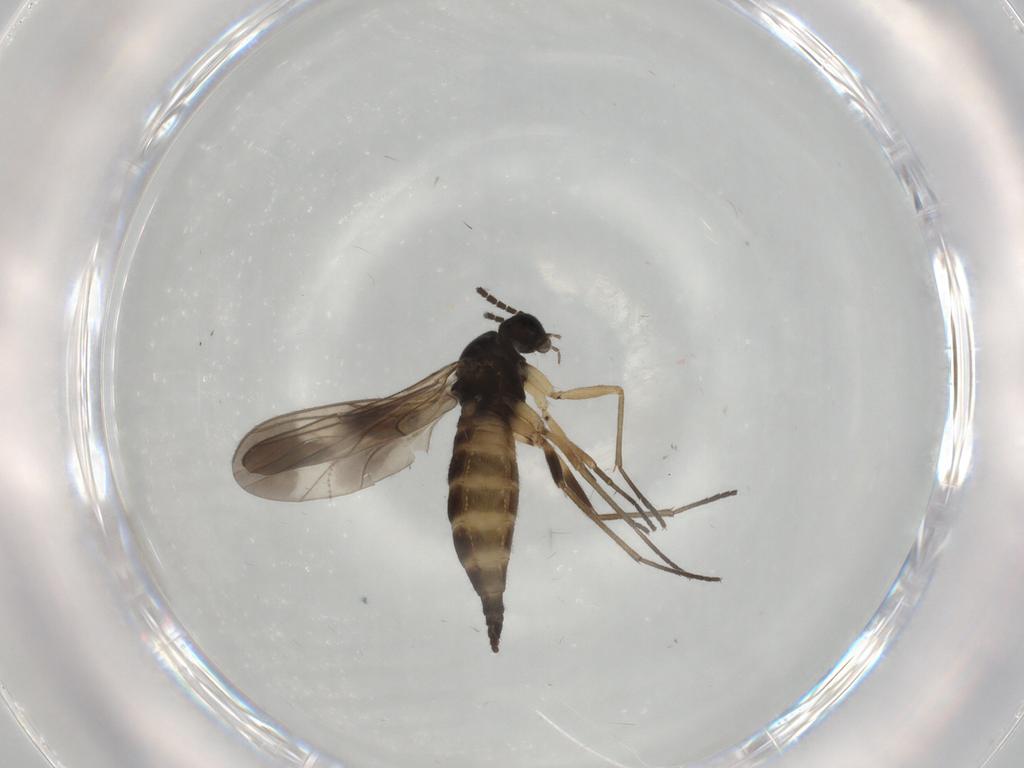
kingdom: Animalia
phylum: Arthropoda
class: Insecta
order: Diptera
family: Sciaridae
